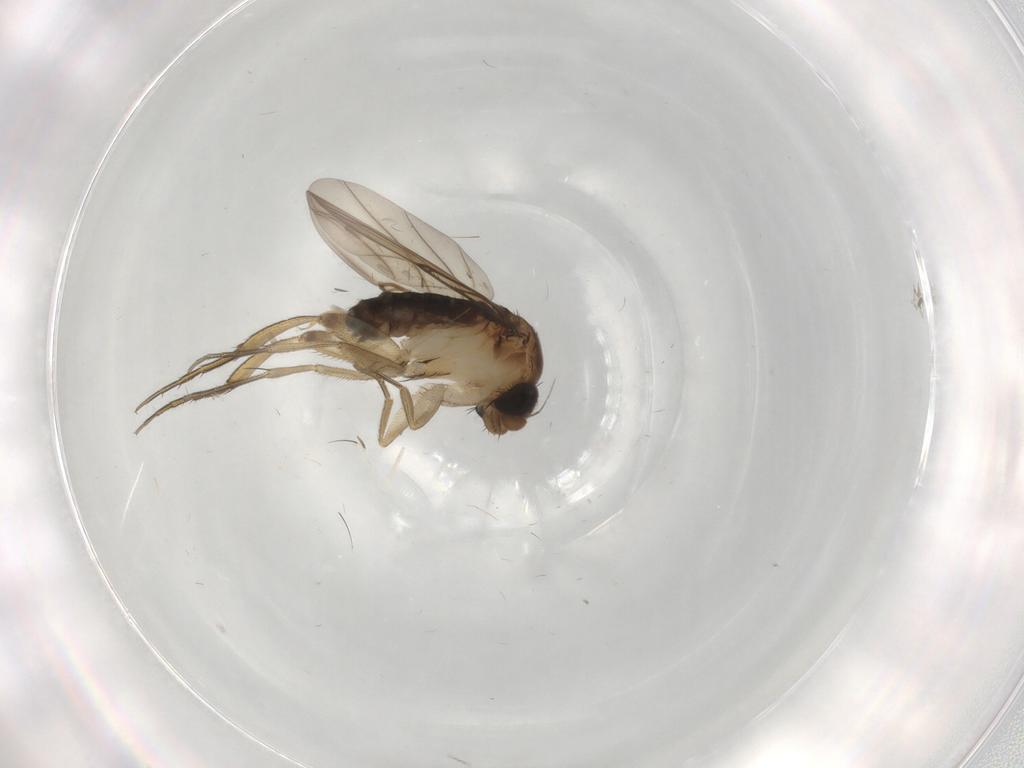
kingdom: Animalia
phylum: Arthropoda
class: Insecta
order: Diptera
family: Cecidomyiidae
